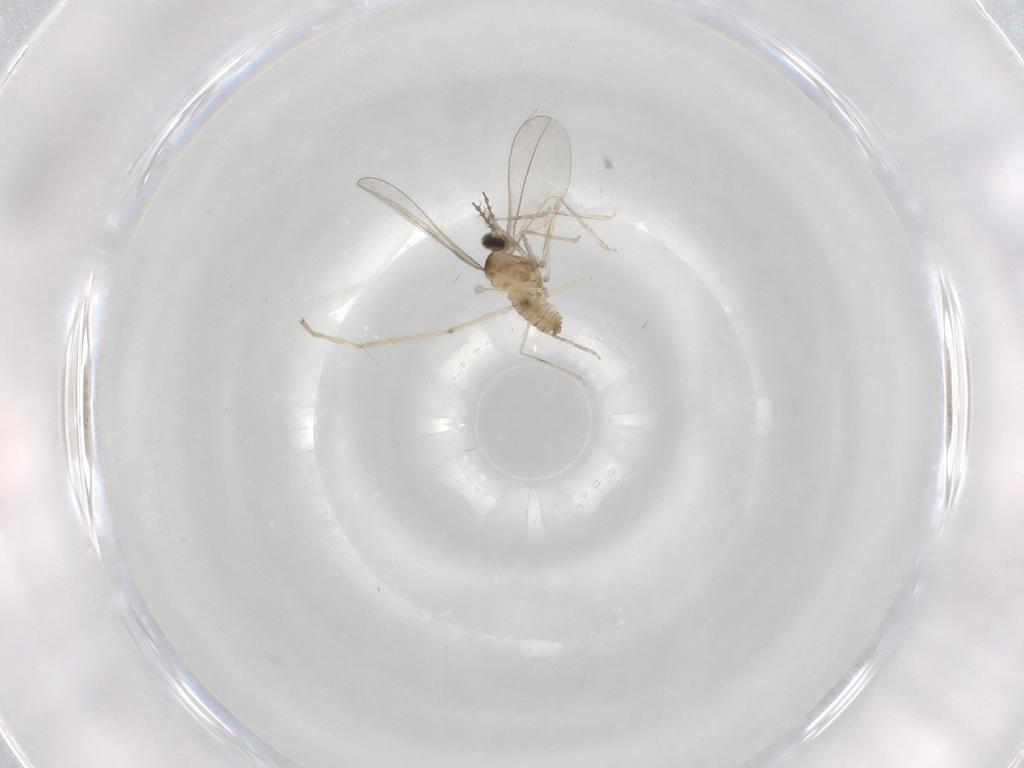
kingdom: Animalia
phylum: Arthropoda
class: Insecta
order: Diptera
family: Cecidomyiidae
